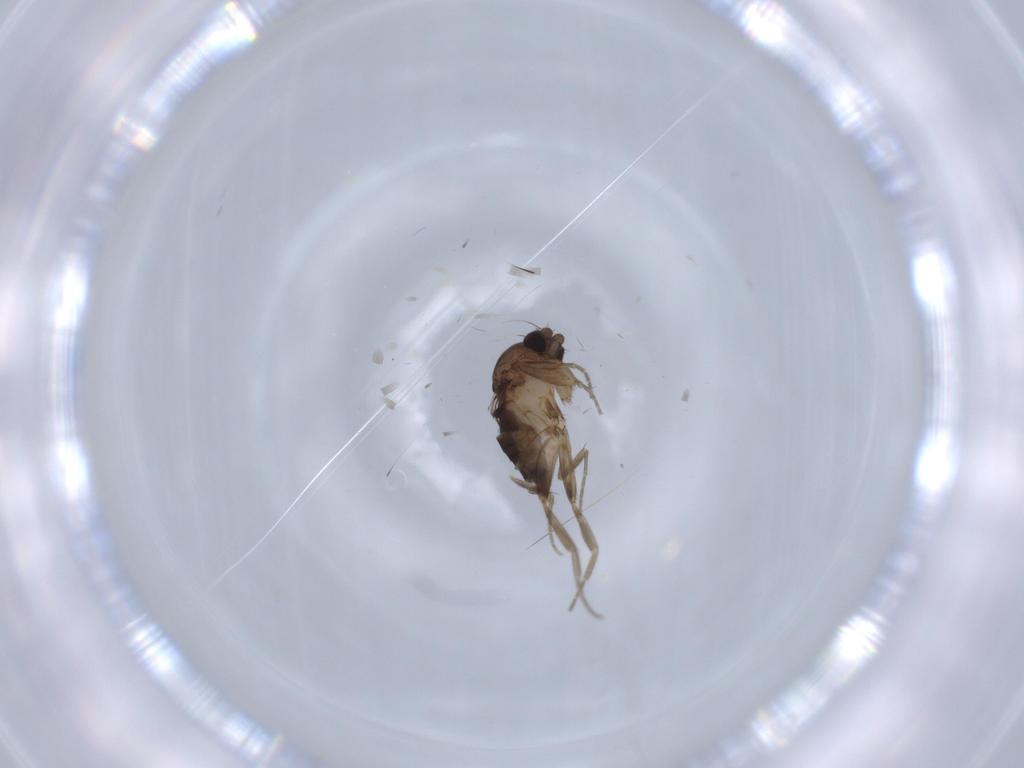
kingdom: Animalia
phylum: Arthropoda
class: Insecta
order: Diptera
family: Phoridae
